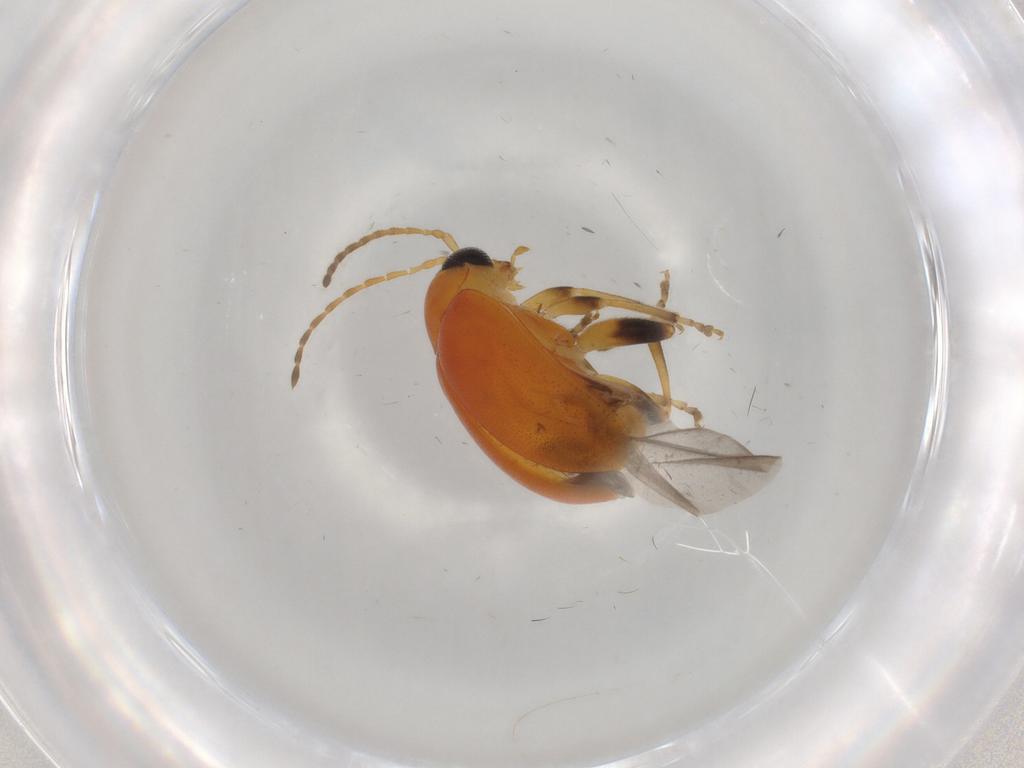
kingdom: Animalia
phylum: Arthropoda
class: Insecta
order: Coleoptera
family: Chrysomelidae
